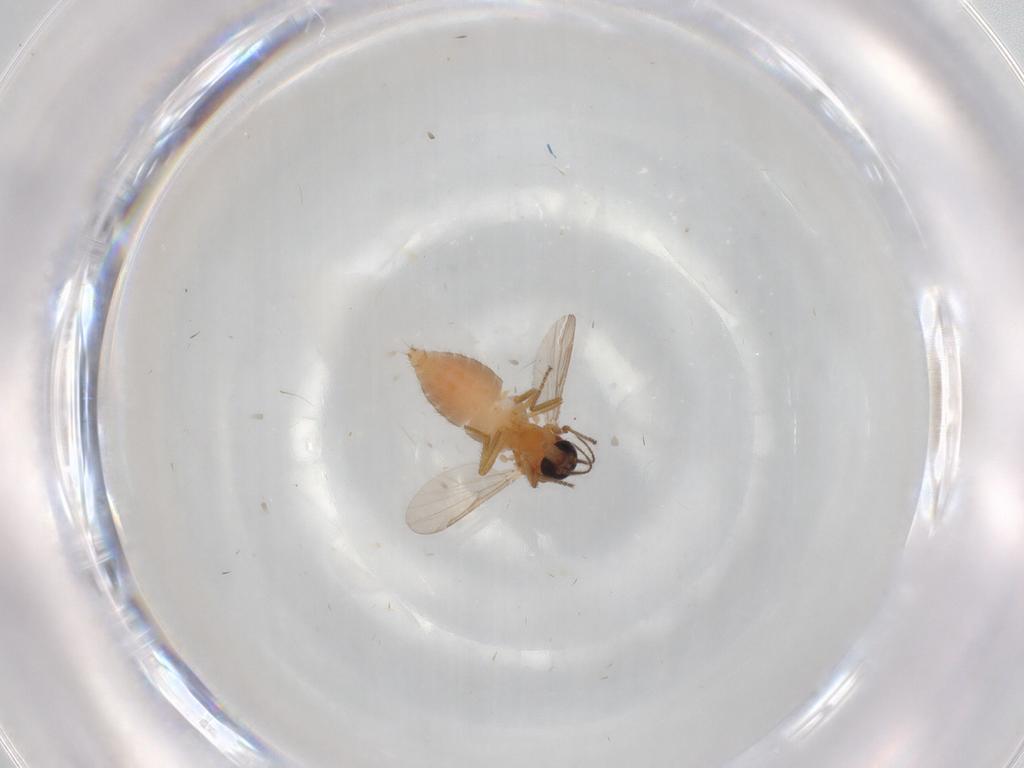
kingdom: Animalia
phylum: Arthropoda
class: Insecta
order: Diptera
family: Ceratopogonidae
